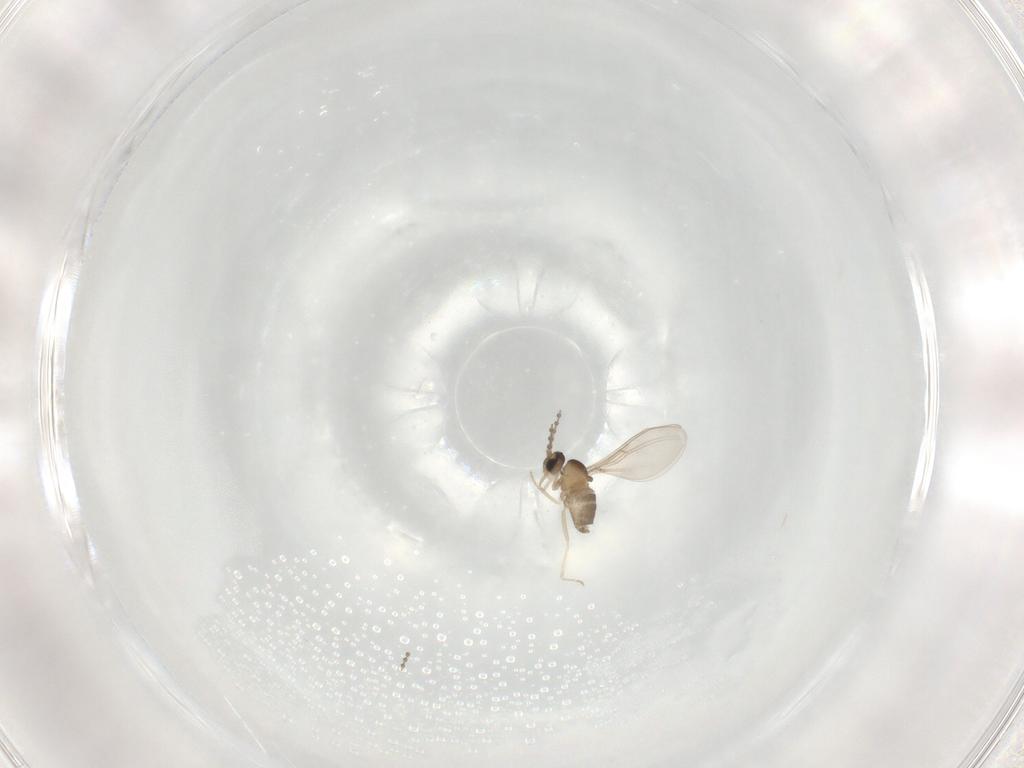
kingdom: Animalia
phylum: Arthropoda
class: Insecta
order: Diptera
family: Cecidomyiidae
